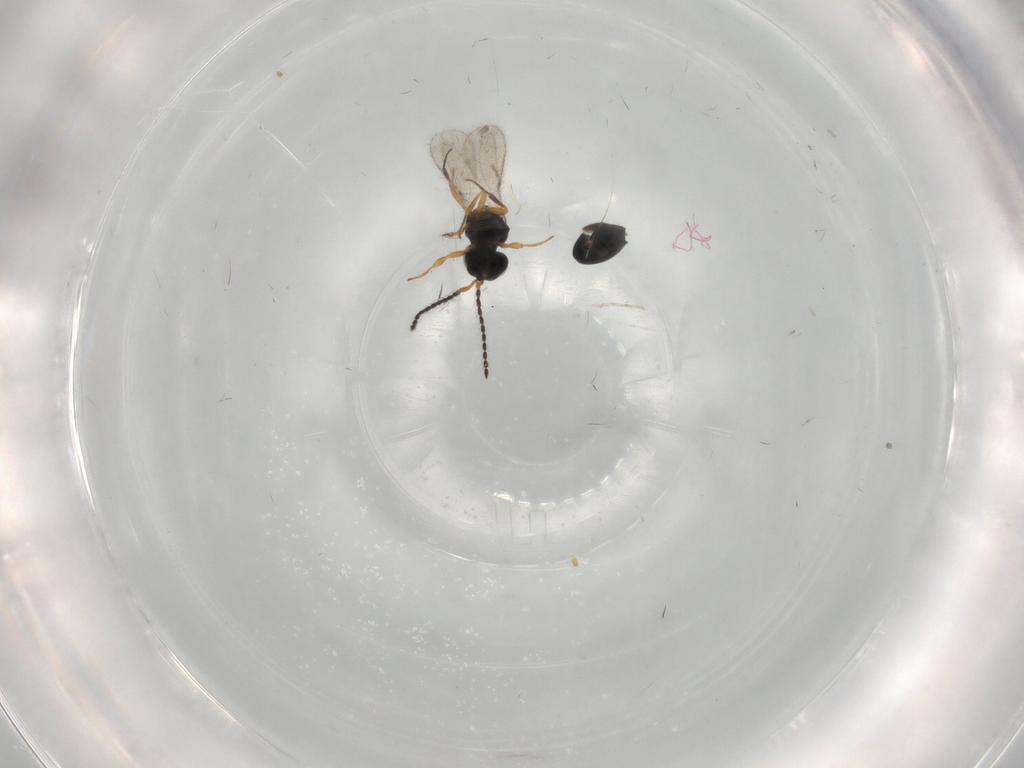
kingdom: Animalia
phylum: Arthropoda
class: Insecta
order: Hymenoptera
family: Scelionidae
